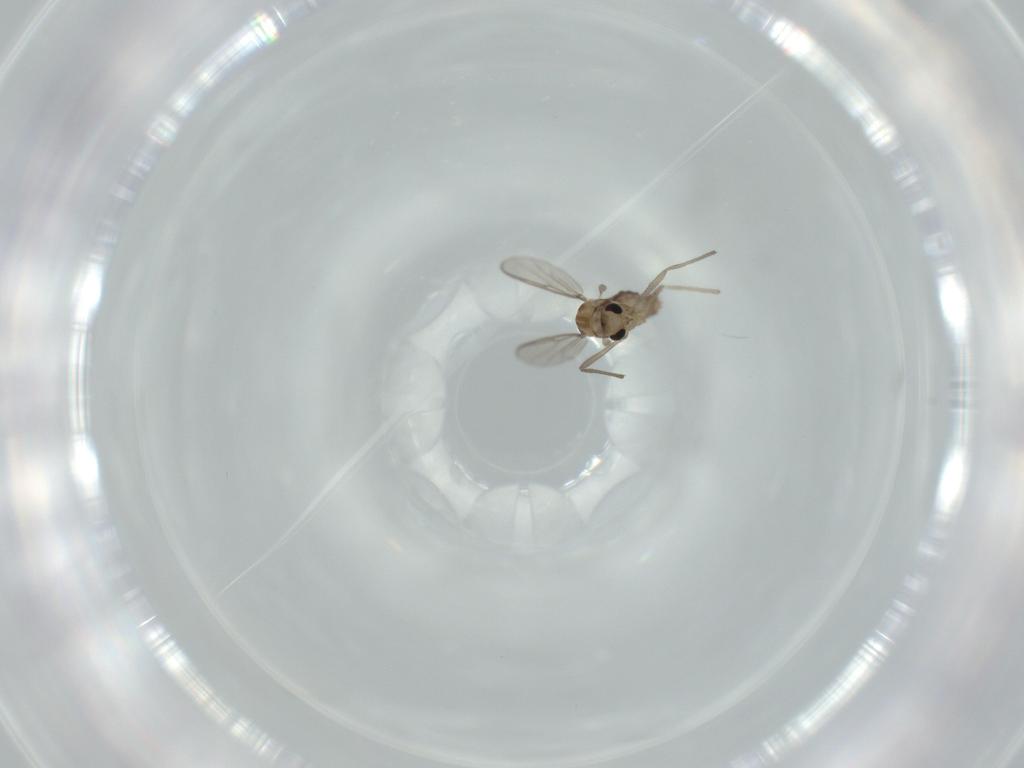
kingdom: Animalia
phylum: Arthropoda
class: Insecta
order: Diptera
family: Chironomidae
